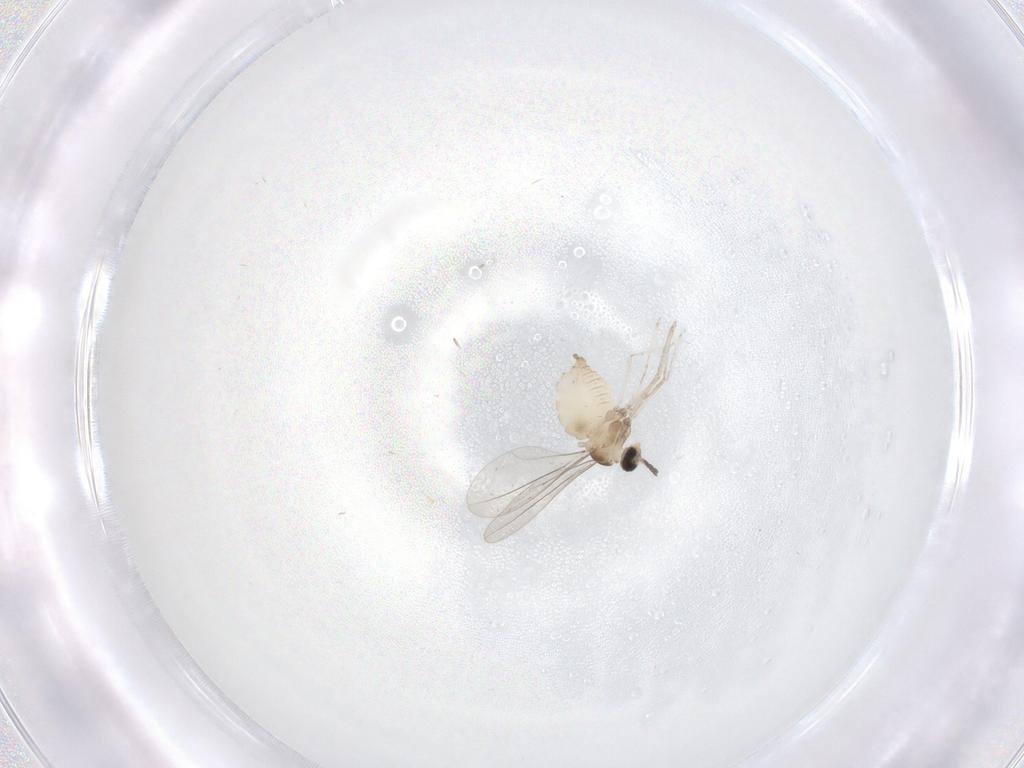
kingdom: Animalia
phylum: Arthropoda
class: Insecta
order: Diptera
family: Cecidomyiidae
